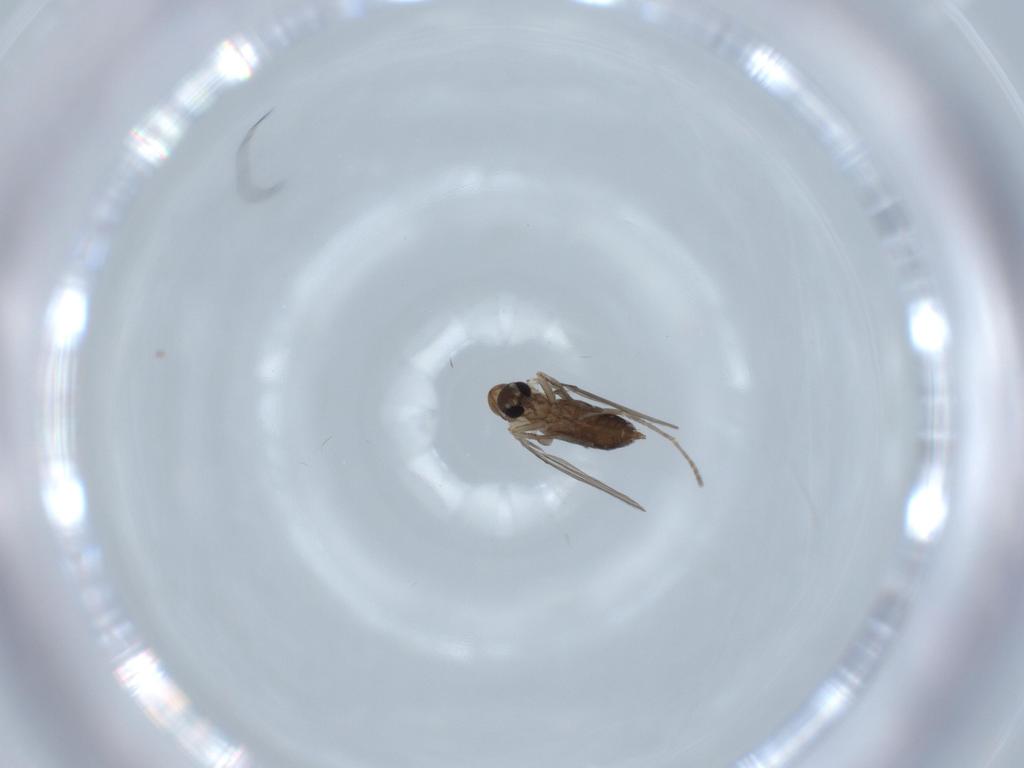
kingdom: Animalia
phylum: Arthropoda
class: Insecta
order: Diptera
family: Psychodidae
